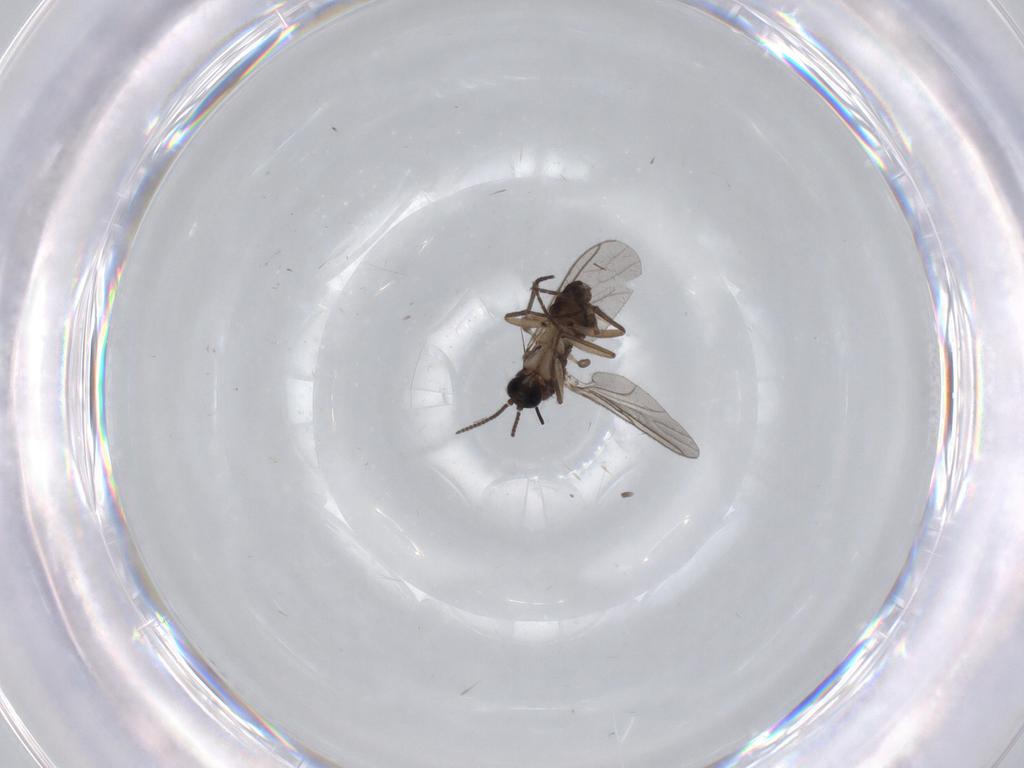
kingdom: Animalia
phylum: Arthropoda
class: Insecta
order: Diptera
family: Sciaridae
